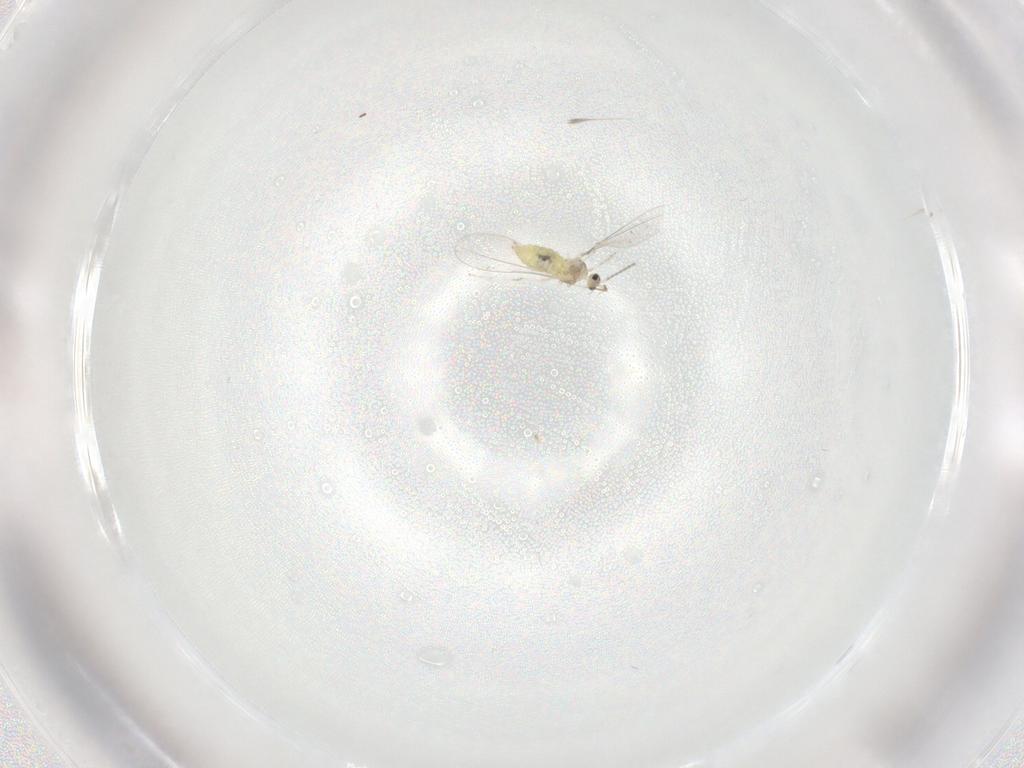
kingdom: Animalia
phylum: Arthropoda
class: Insecta
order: Diptera
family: Cecidomyiidae
